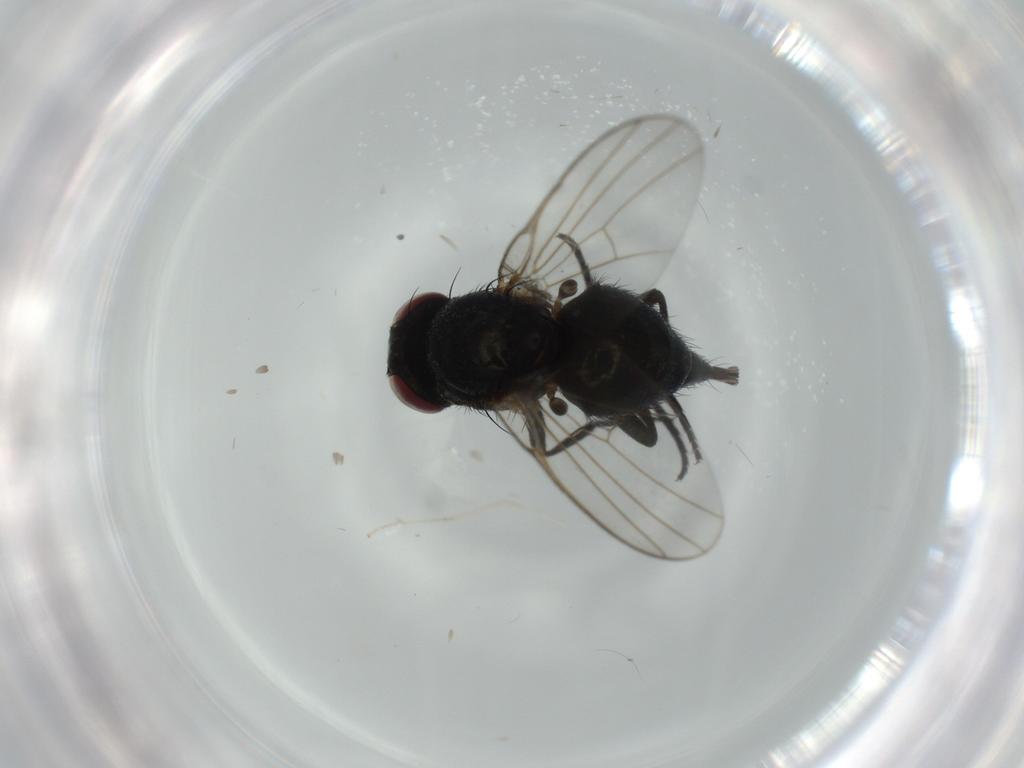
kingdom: Animalia
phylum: Arthropoda
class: Insecta
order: Diptera
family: Agromyzidae
